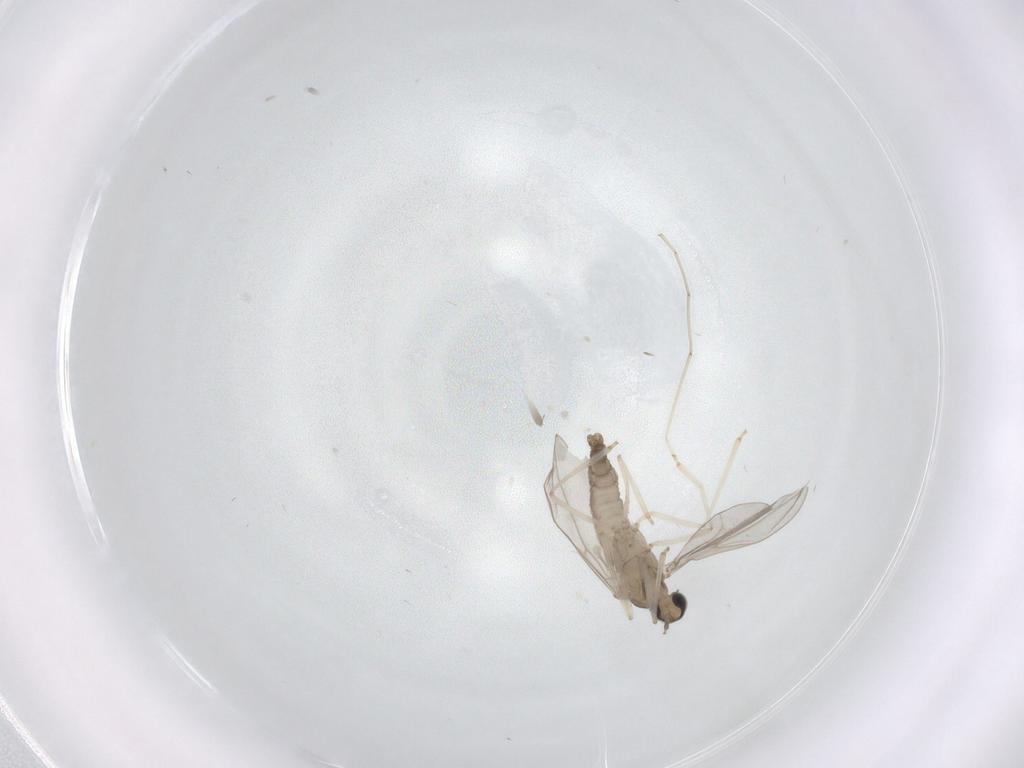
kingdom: Animalia
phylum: Arthropoda
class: Insecta
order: Diptera
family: Cecidomyiidae
